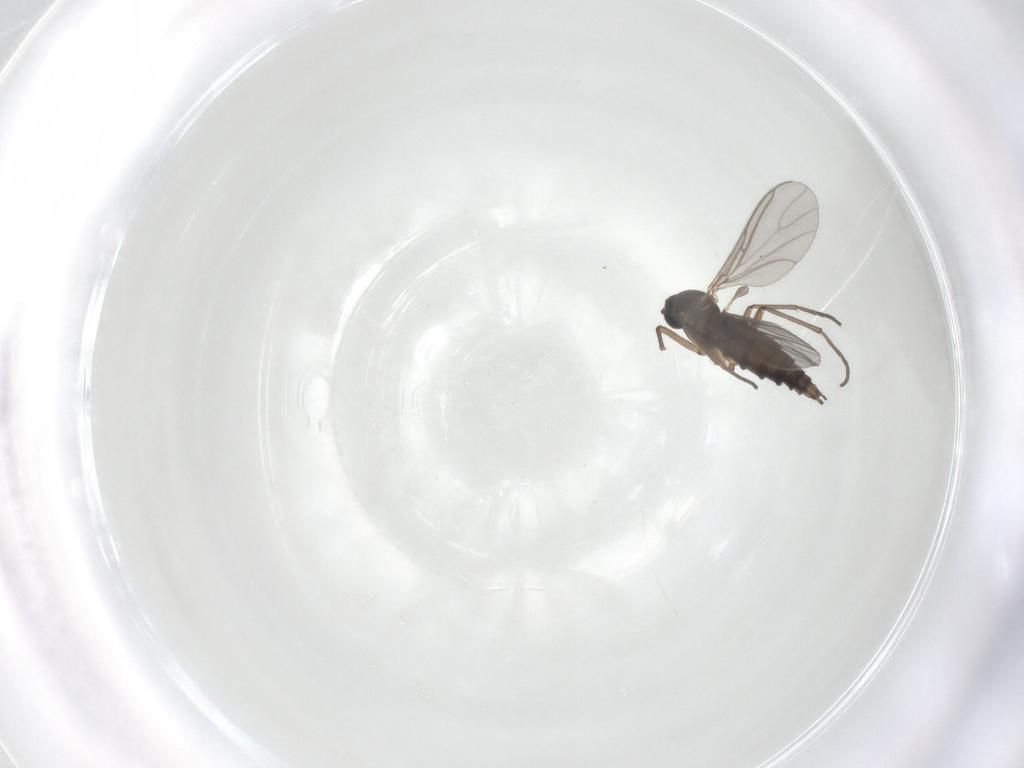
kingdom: Animalia
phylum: Arthropoda
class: Insecta
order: Diptera
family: Sciaridae
